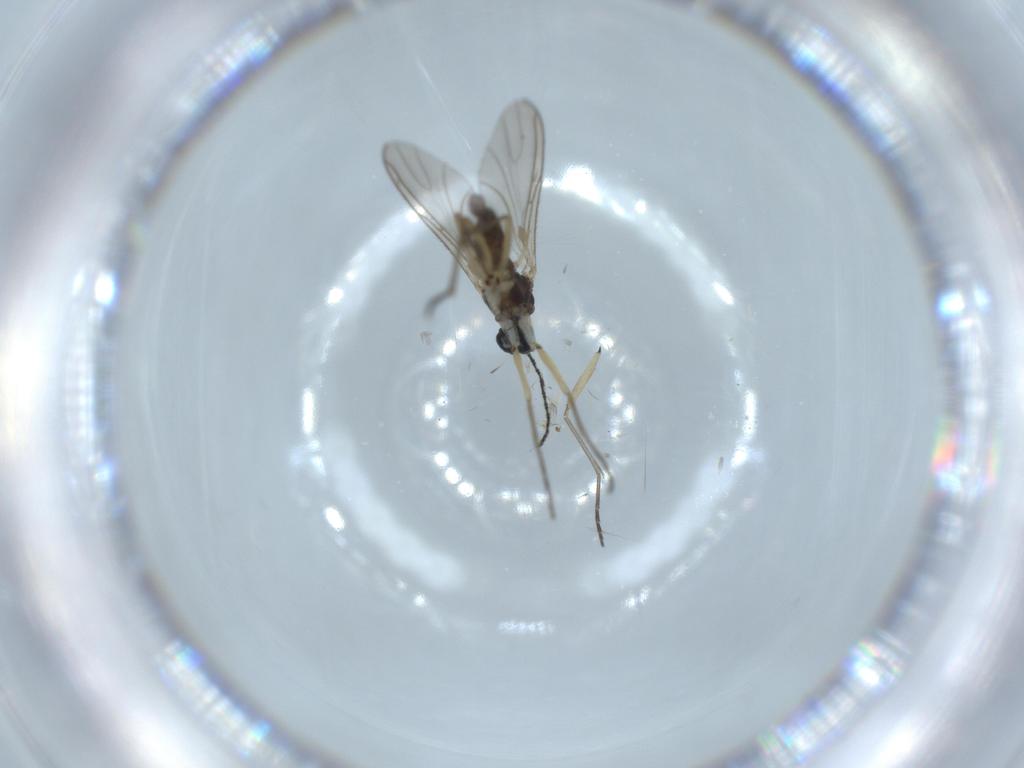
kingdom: Animalia
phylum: Arthropoda
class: Insecta
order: Diptera
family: Sciaridae
